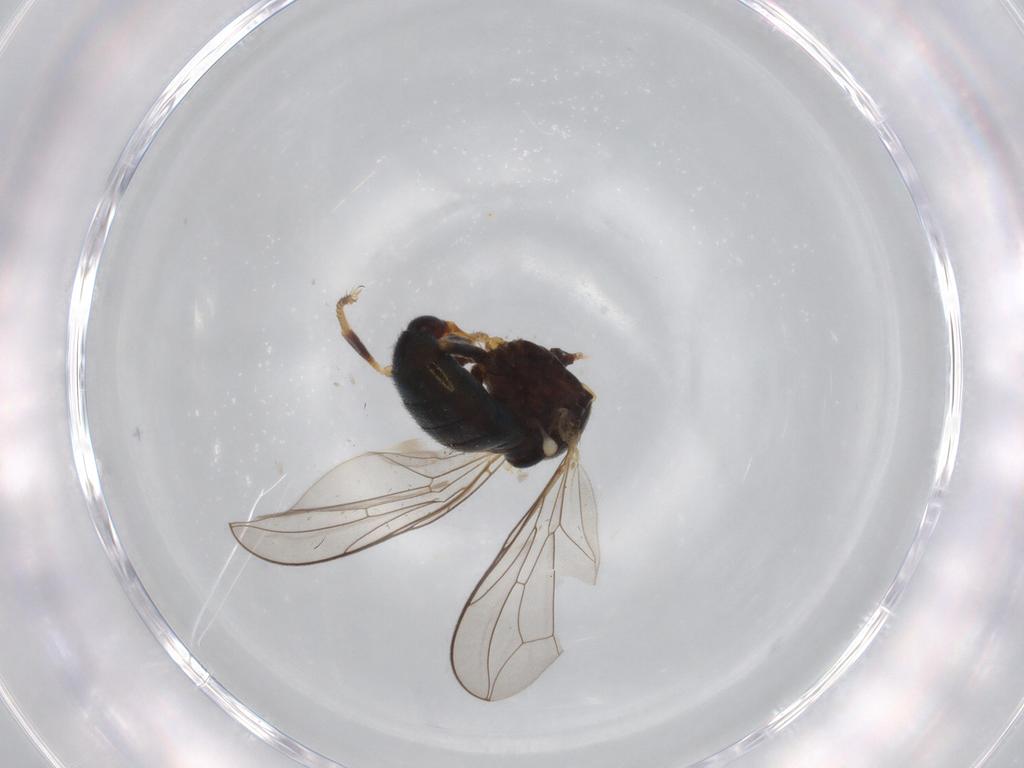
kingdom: Animalia
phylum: Arthropoda
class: Insecta
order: Diptera
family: Pipunculidae
